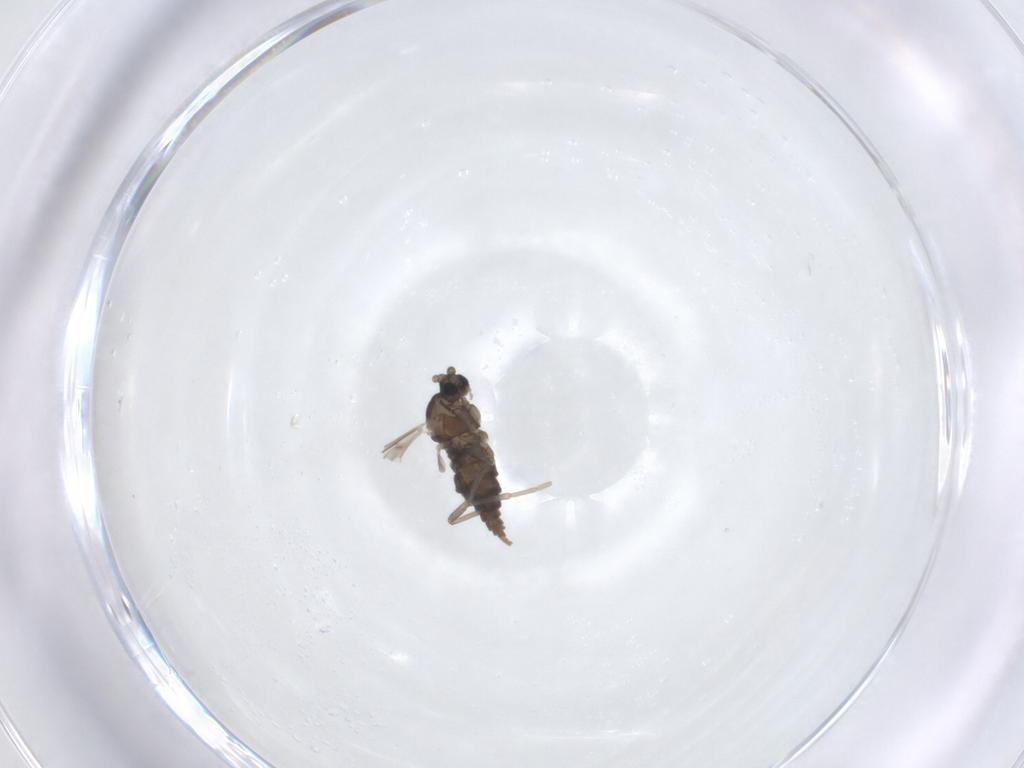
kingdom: Animalia
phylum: Arthropoda
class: Insecta
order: Diptera
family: Cecidomyiidae
